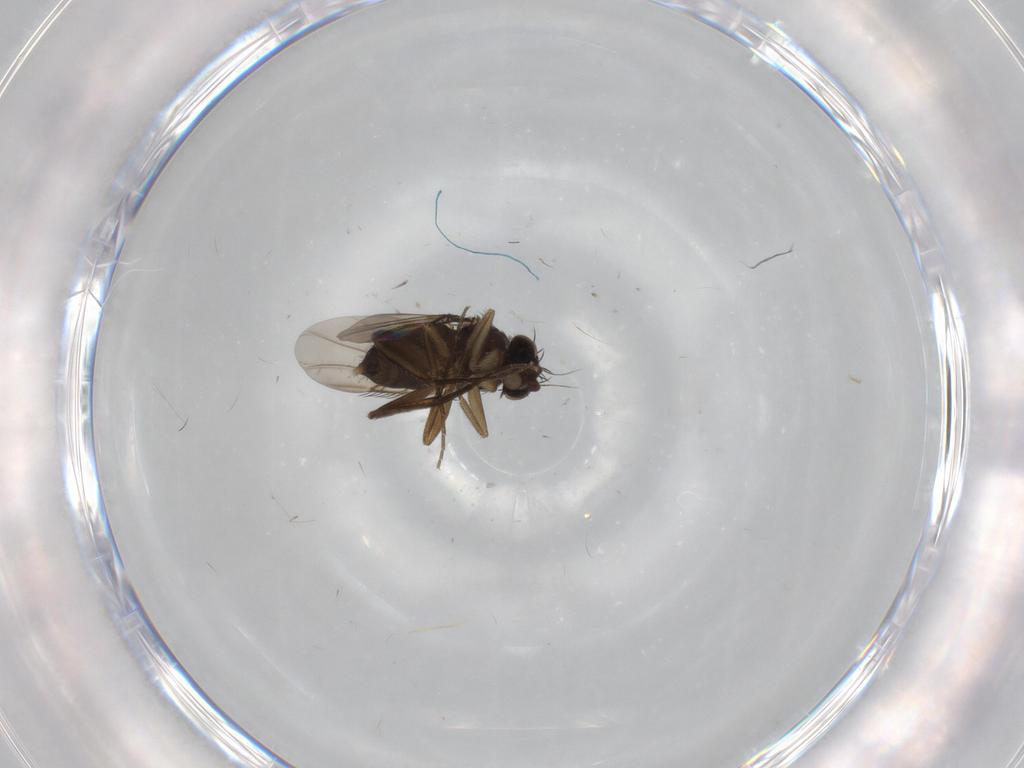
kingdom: Animalia
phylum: Arthropoda
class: Insecta
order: Diptera
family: Phoridae
